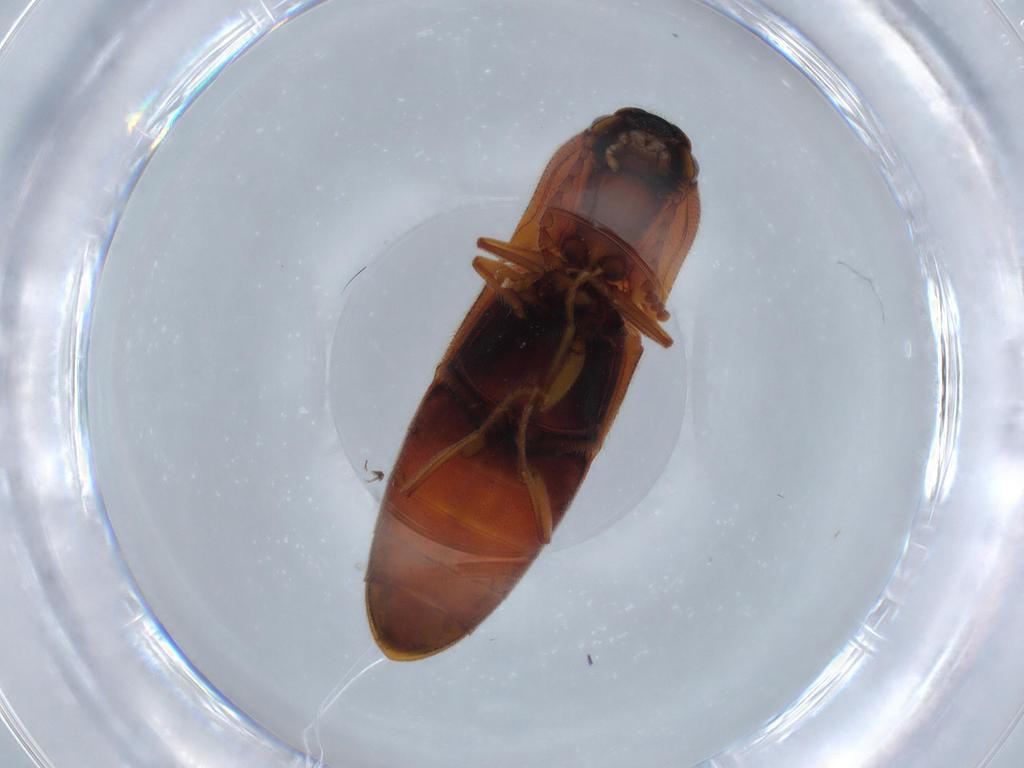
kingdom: Animalia
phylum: Arthropoda
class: Insecta
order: Coleoptera
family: Elateridae
